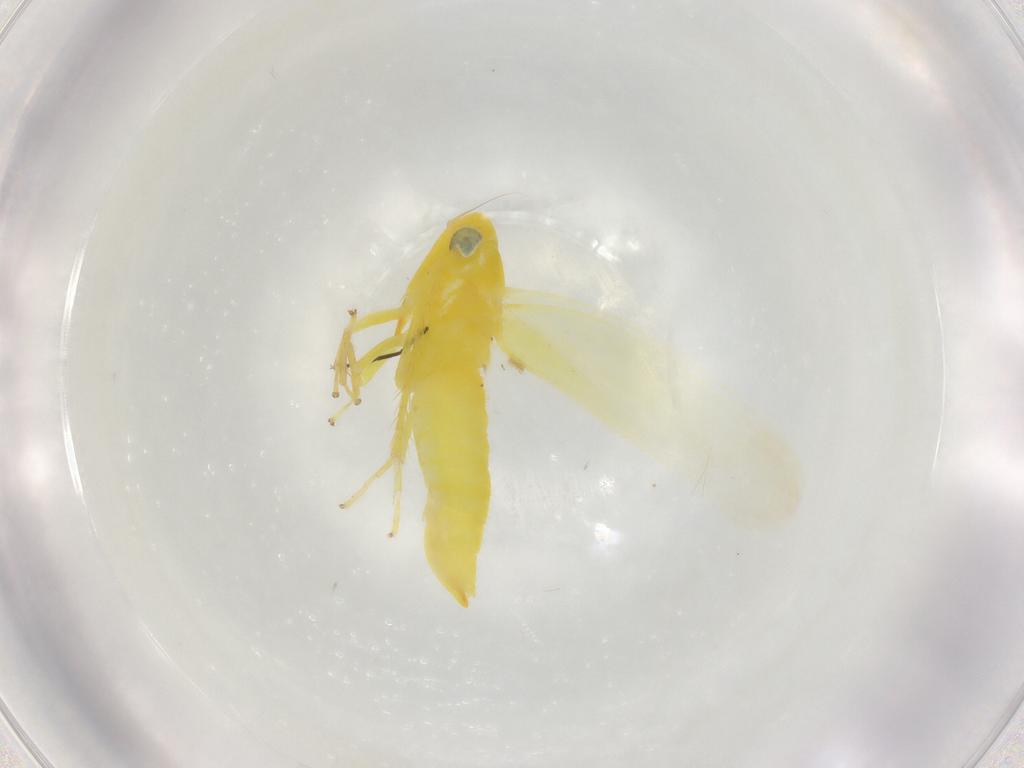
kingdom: Animalia
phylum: Arthropoda
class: Insecta
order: Hemiptera
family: Cicadellidae
